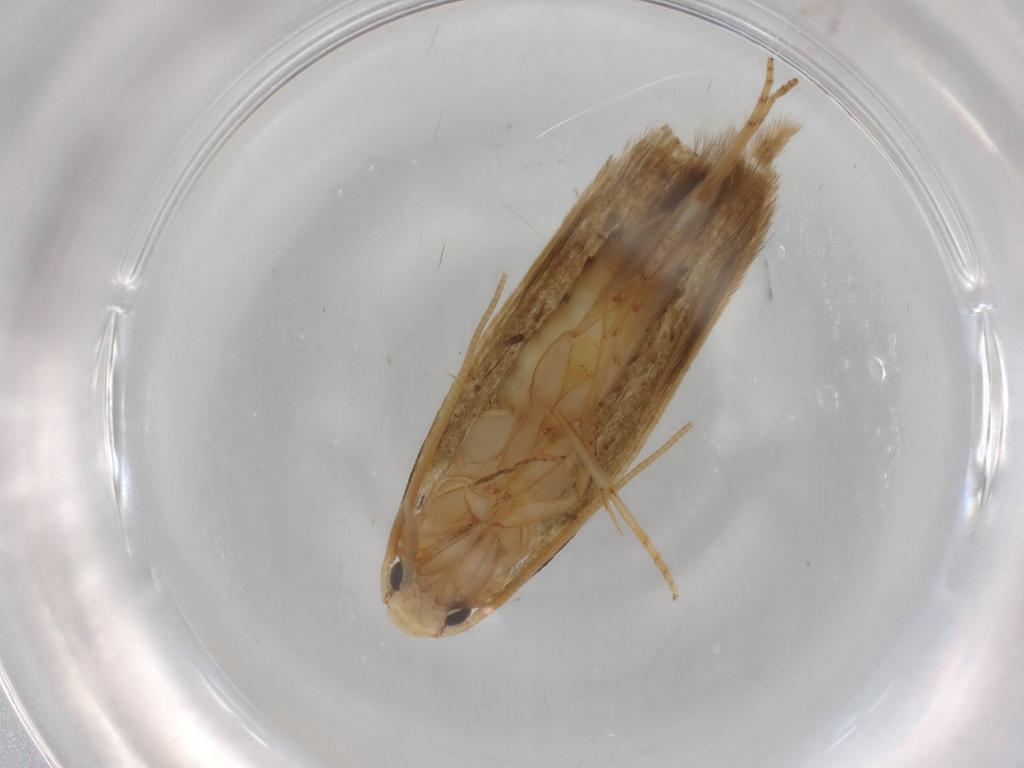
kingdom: Animalia
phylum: Arthropoda
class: Insecta
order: Lepidoptera
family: Tineidae
